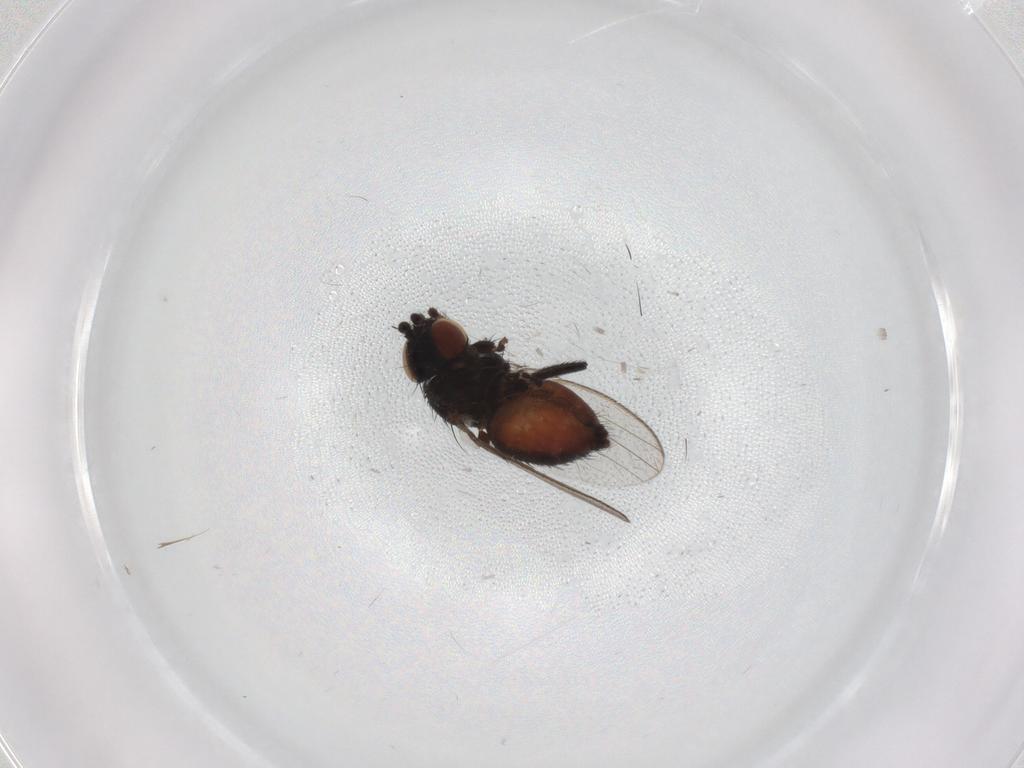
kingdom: Animalia
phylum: Arthropoda
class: Insecta
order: Diptera
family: Milichiidae
